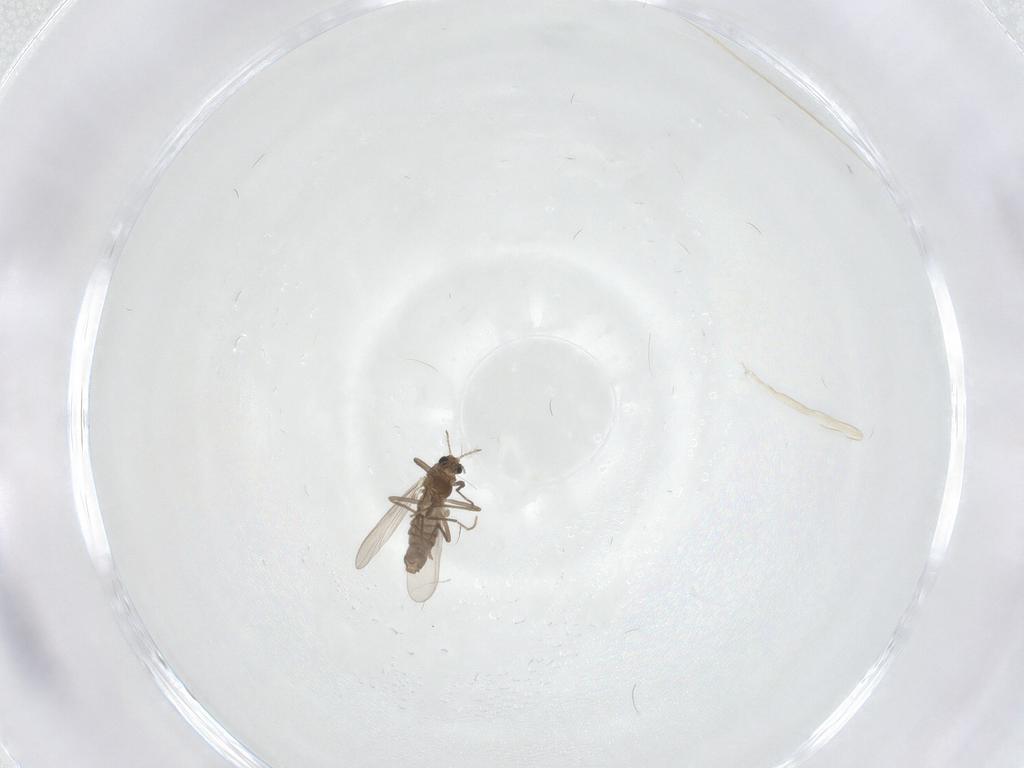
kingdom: Animalia
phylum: Arthropoda
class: Insecta
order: Diptera
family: Chironomidae
